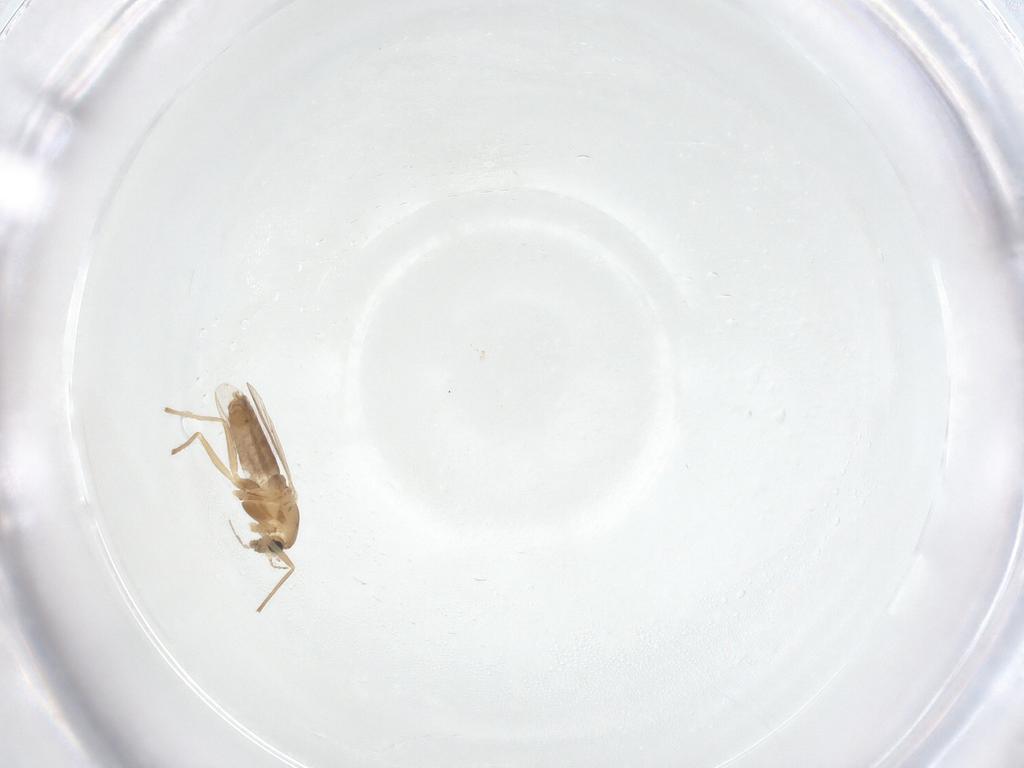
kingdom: Animalia
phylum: Arthropoda
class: Insecta
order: Diptera
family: Chironomidae
